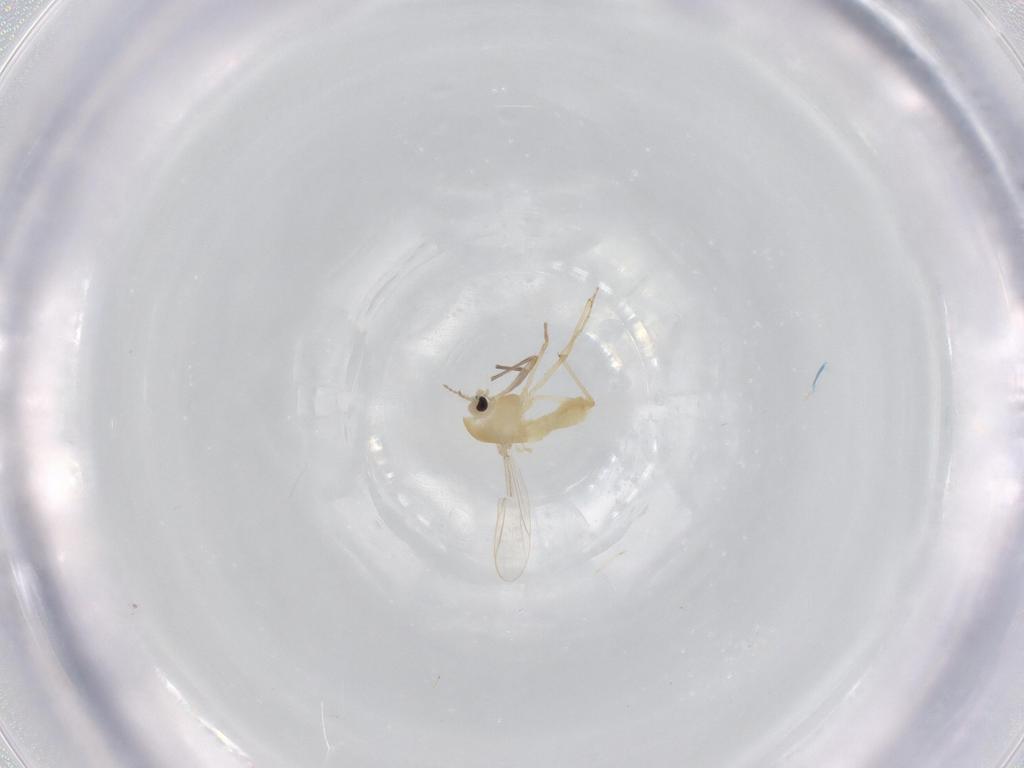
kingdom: Animalia
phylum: Arthropoda
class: Insecta
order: Diptera
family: Chironomidae
